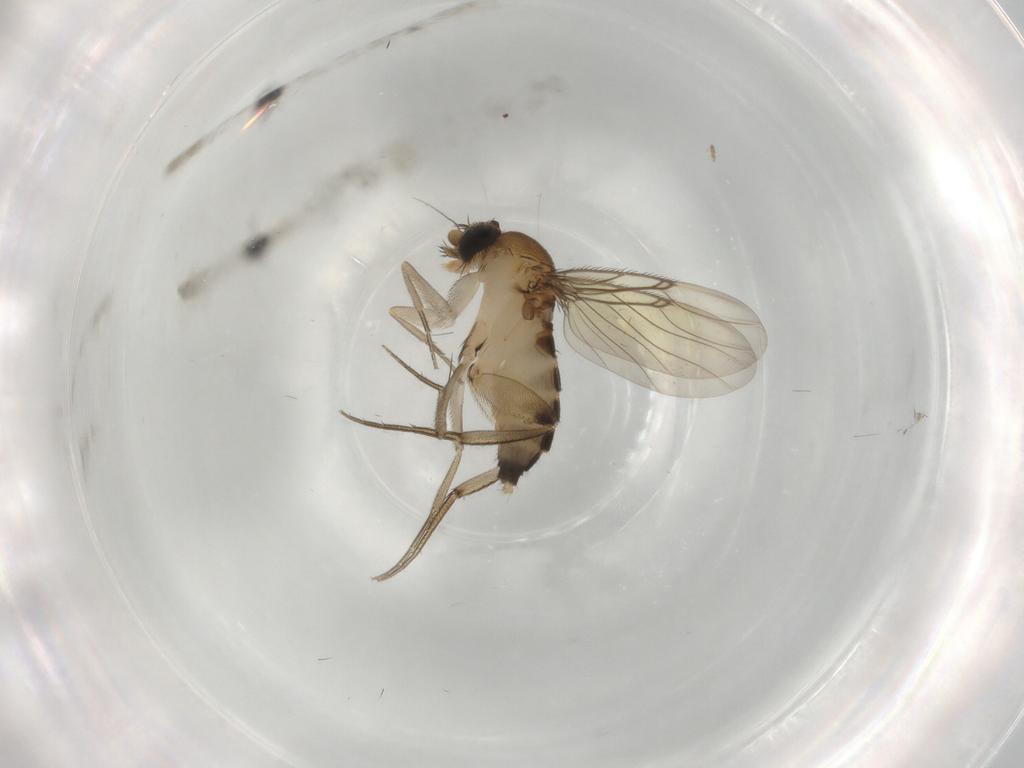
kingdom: Animalia
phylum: Arthropoda
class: Insecta
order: Diptera
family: Phoridae
